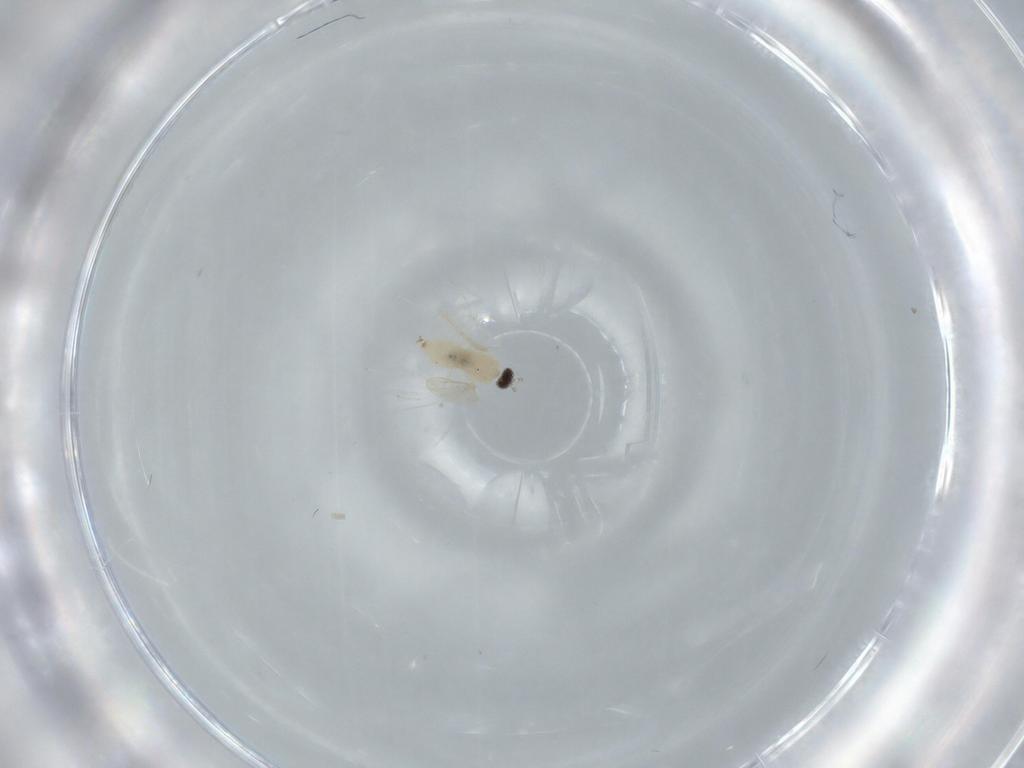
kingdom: Animalia
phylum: Arthropoda
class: Insecta
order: Diptera
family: Cecidomyiidae
